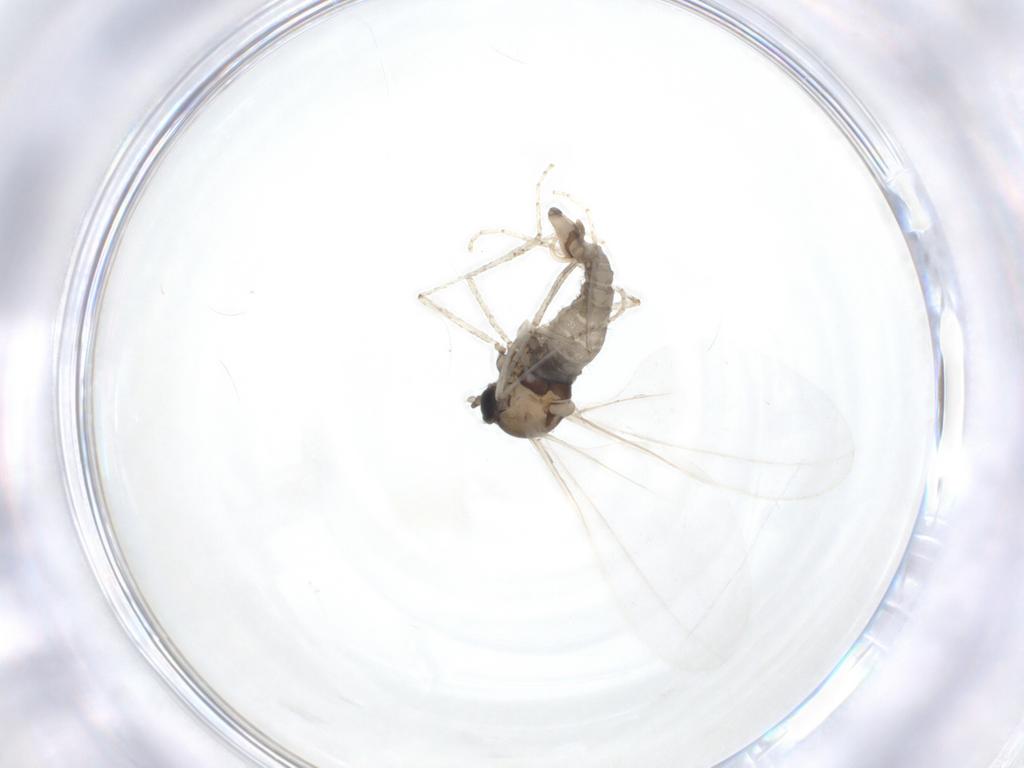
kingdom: Animalia
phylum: Arthropoda
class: Insecta
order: Diptera
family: Cecidomyiidae
